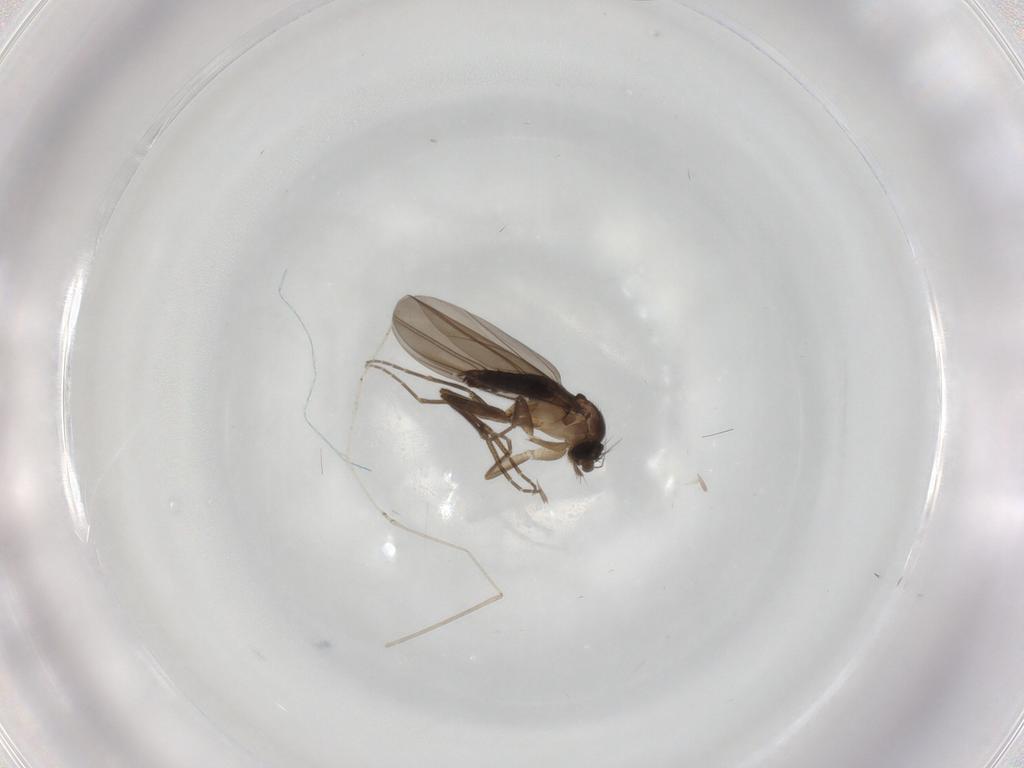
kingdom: Animalia
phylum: Arthropoda
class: Insecta
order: Diptera
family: Phoridae
